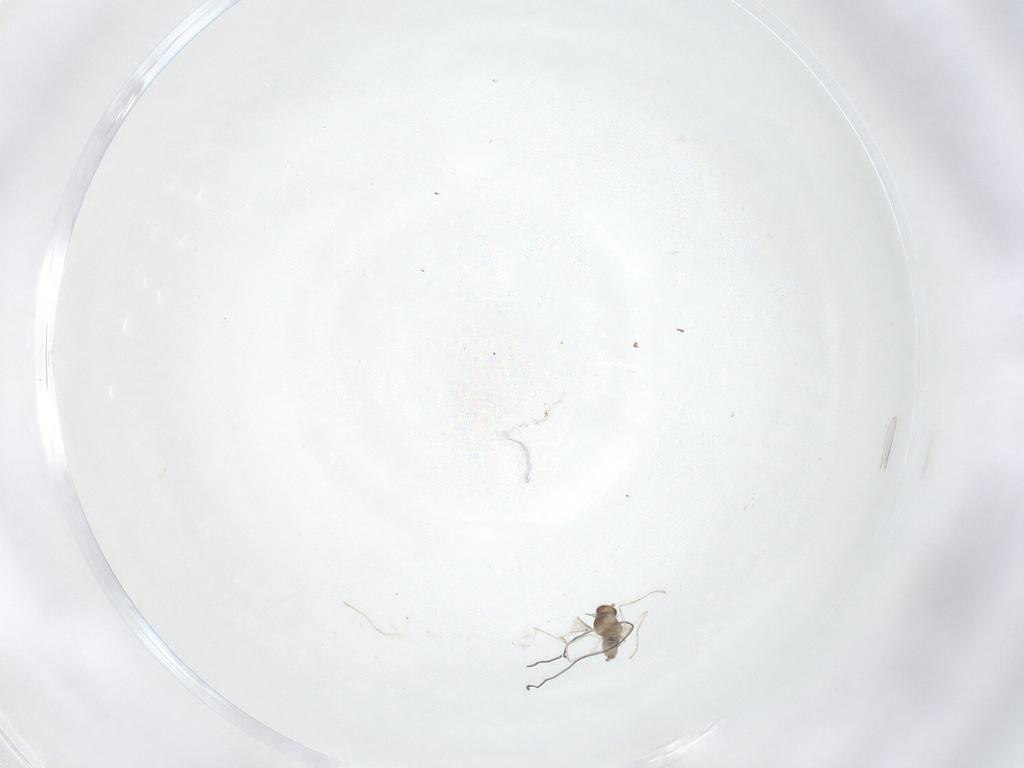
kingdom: Animalia
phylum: Arthropoda
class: Insecta
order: Diptera
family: Cecidomyiidae
